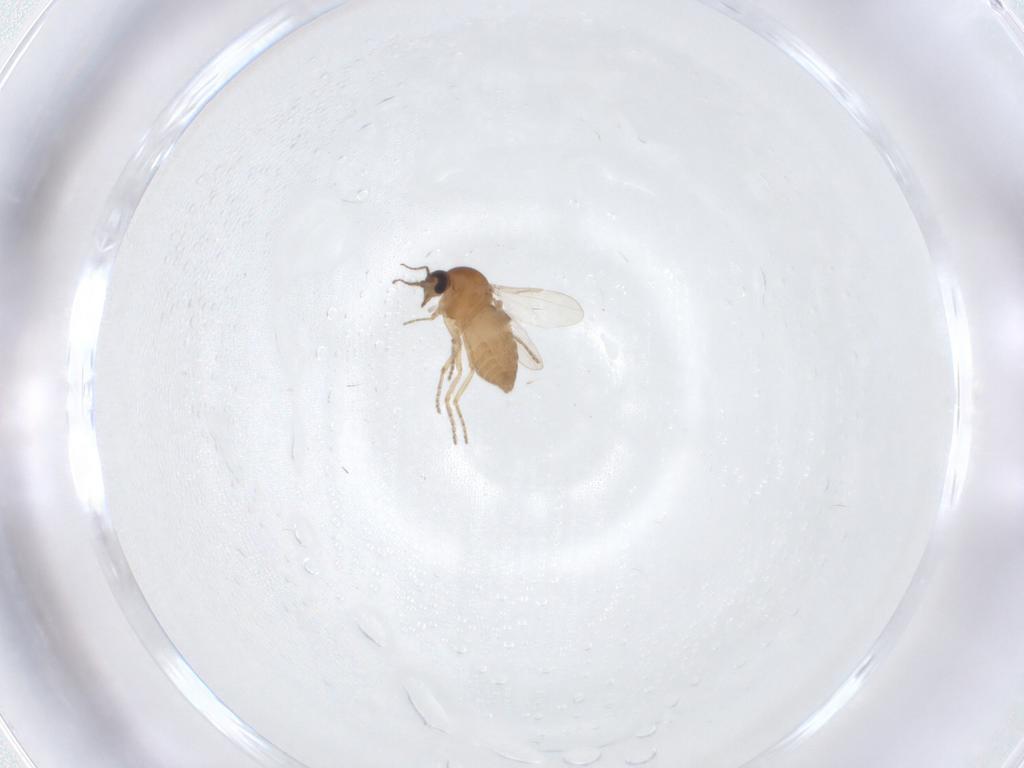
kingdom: Animalia
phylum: Arthropoda
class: Insecta
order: Diptera
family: Ceratopogonidae
